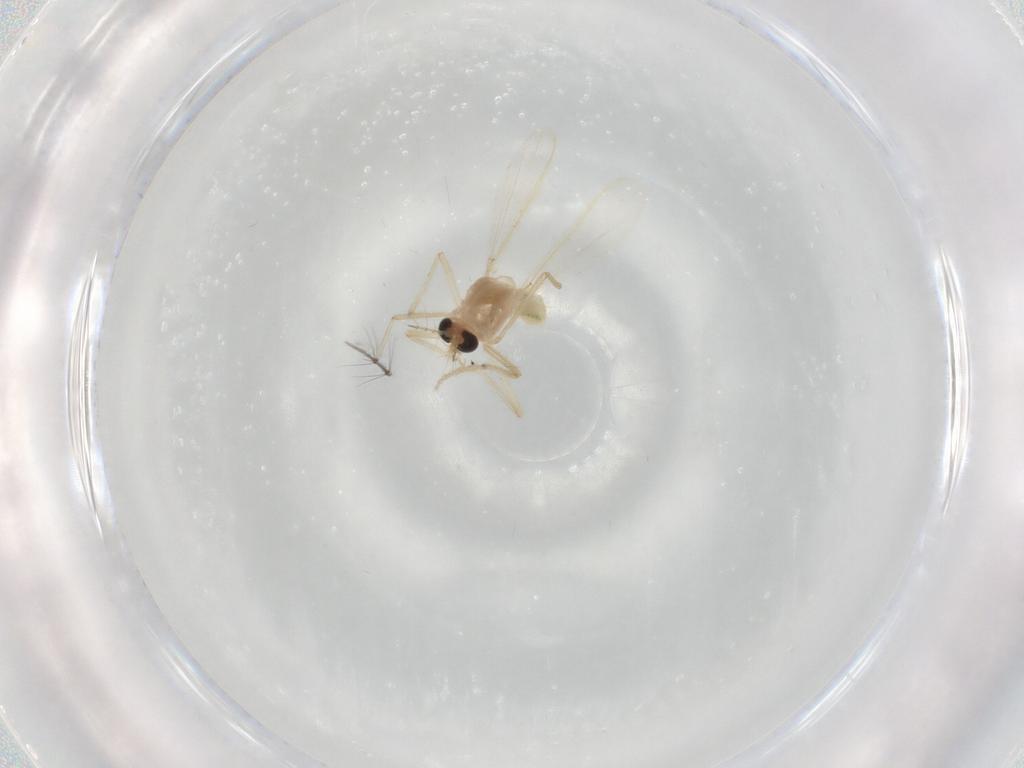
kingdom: Animalia
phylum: Arthropoda
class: Insecta
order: Diptera
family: Chironomidae
